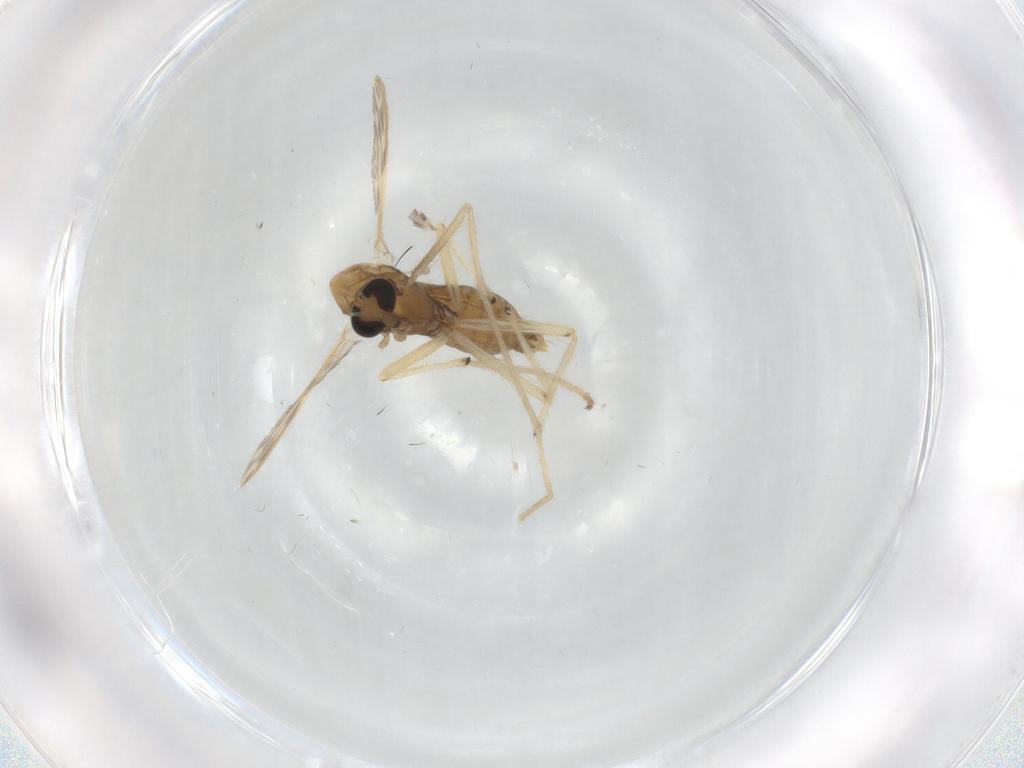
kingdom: Animalia
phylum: Arthropoda
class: Insecta
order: Diptera
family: Chironomidae
